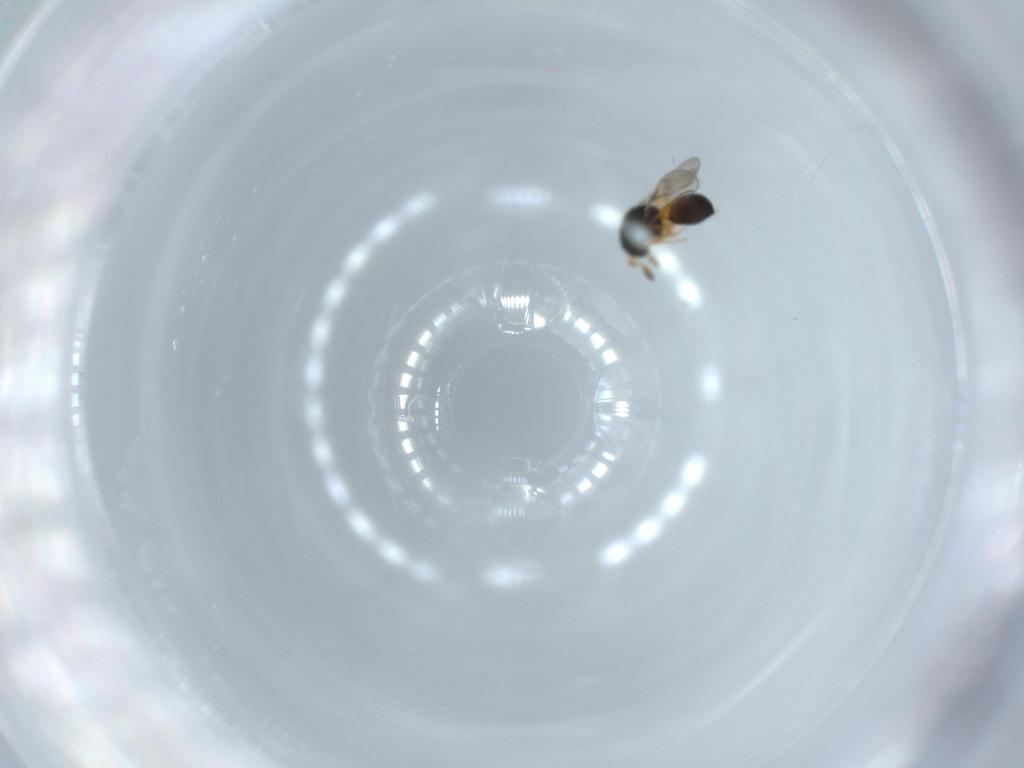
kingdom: Animalia
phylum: Arthropoda
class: Insecta
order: Hymenoptera
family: Scelionidae
